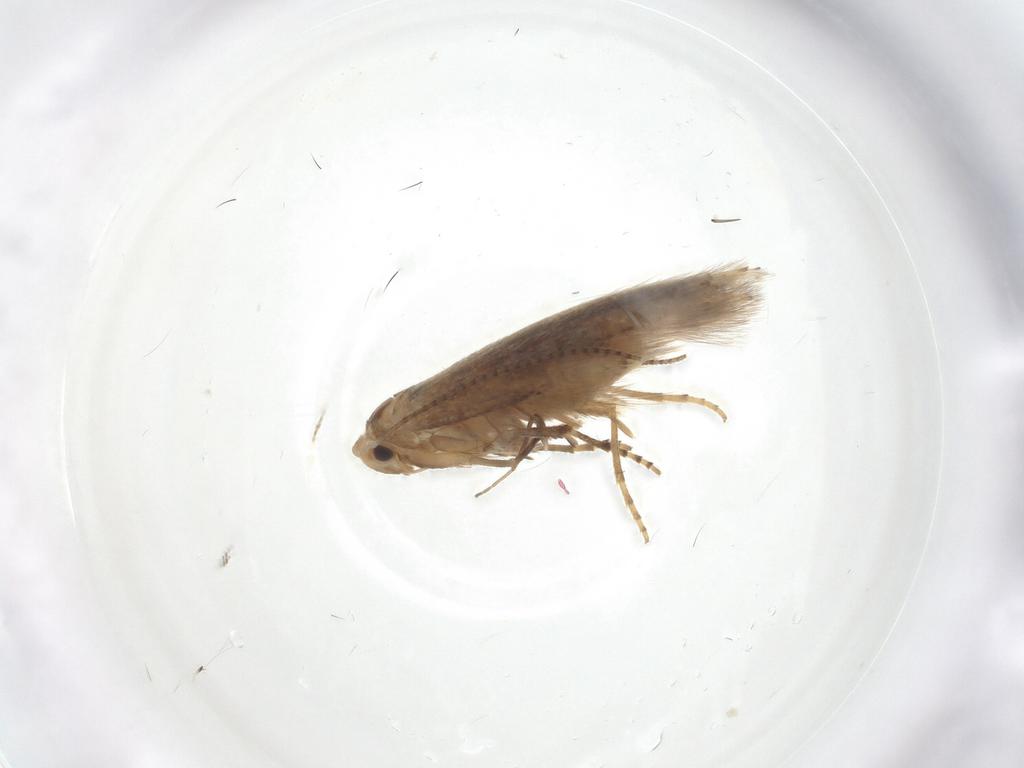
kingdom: Animalia
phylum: Arthropoda
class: Insecta
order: Lepidoptera
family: Bucculatricidae
